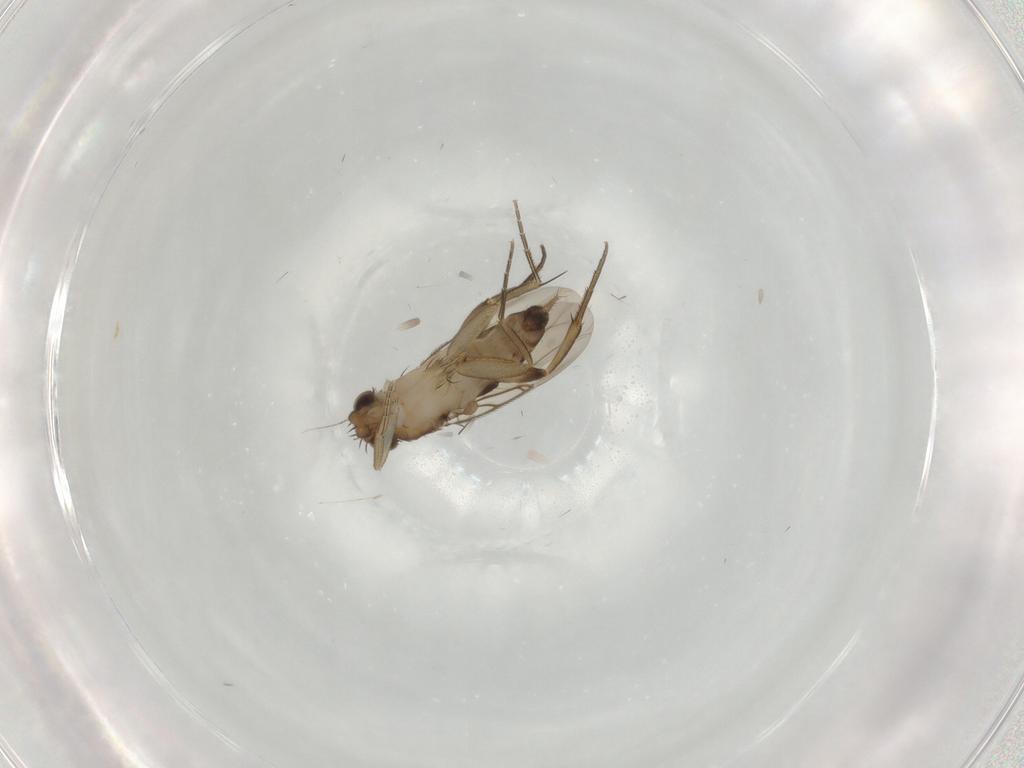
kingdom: Animalia
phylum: Arthropoda
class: Insecta
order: Diptera
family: Phoridae
